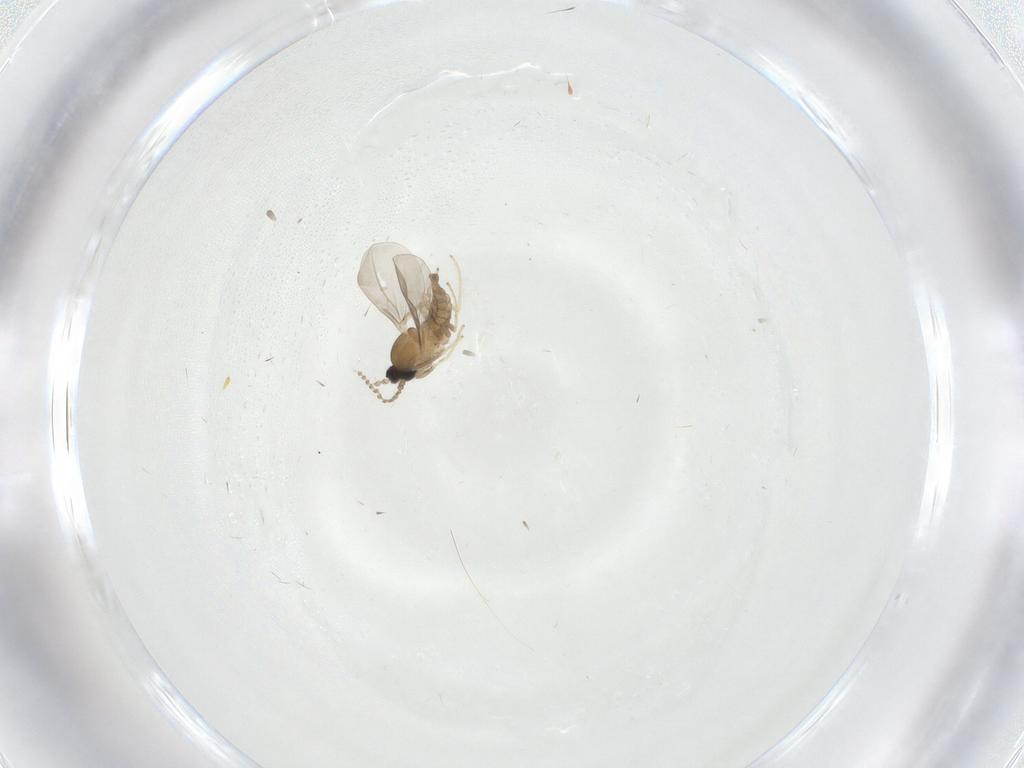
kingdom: Animalia
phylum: Arthropoda
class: Insecta
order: Diptera
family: Cecidomyiidae
